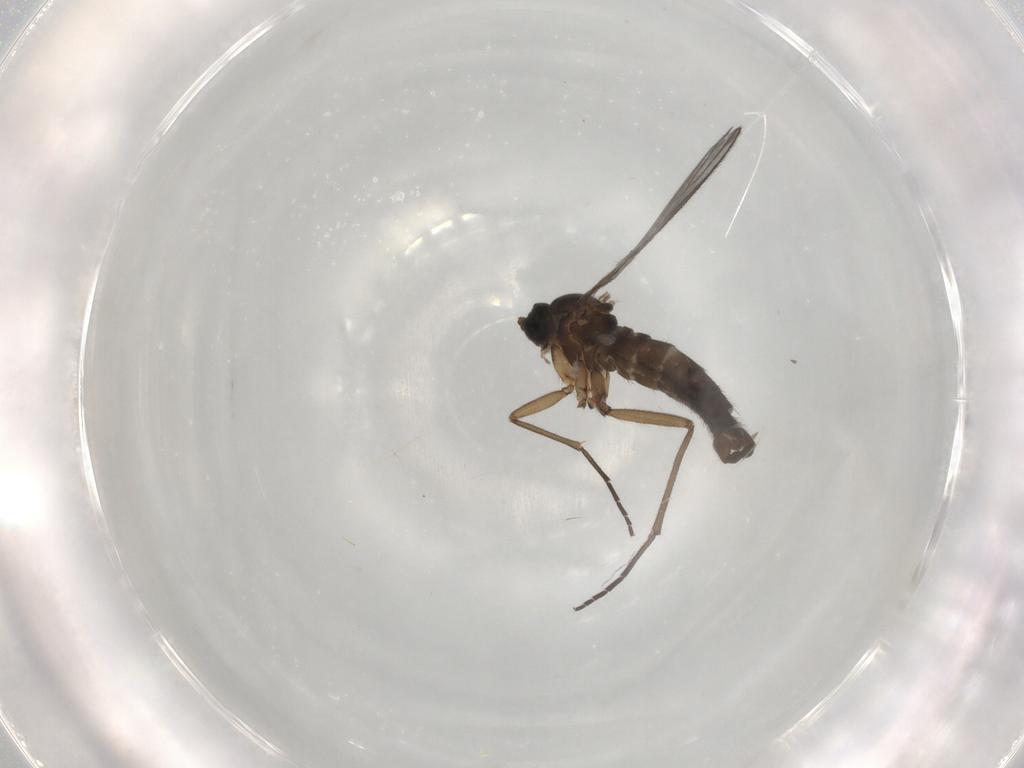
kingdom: Animalia
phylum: Arthropoda
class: Insecta
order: Diptera
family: Sciaridae
